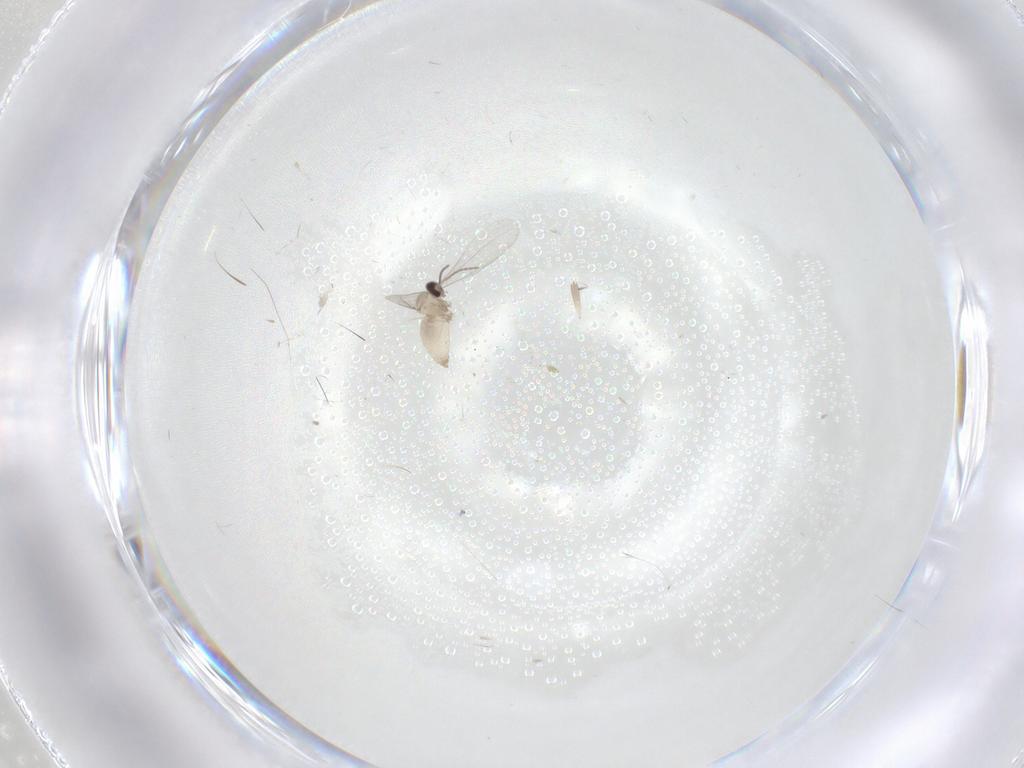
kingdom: Animalia
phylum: Arthropoda
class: Insecta
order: Diptera
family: Cecidomyiidae
